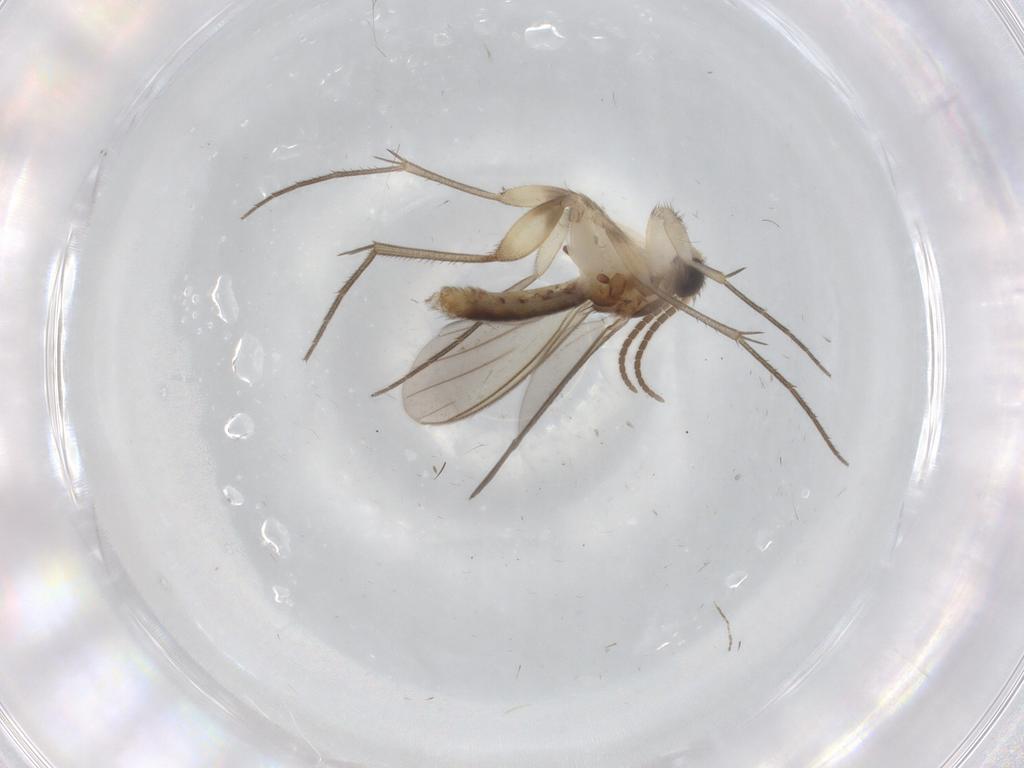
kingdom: Animalia
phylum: Arthropoda
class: Insecta
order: Diptera
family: Mycetophilidae
